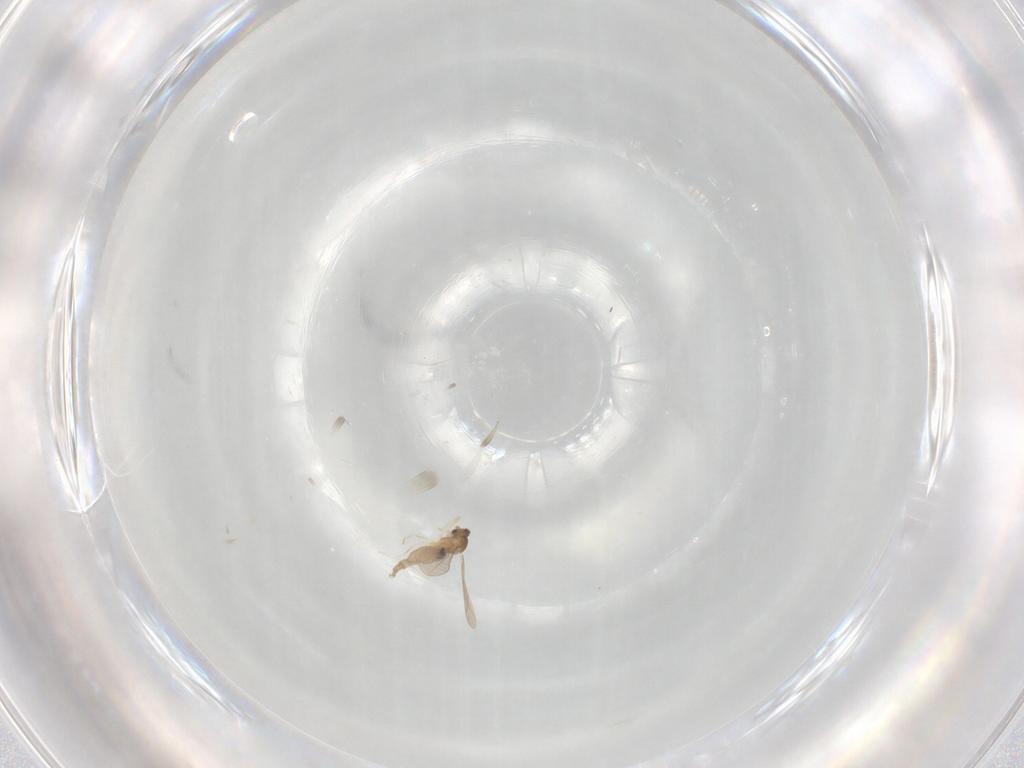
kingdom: Animalia
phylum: Arthropoda
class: Insecta
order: Diptera
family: Cecidomyiidae
